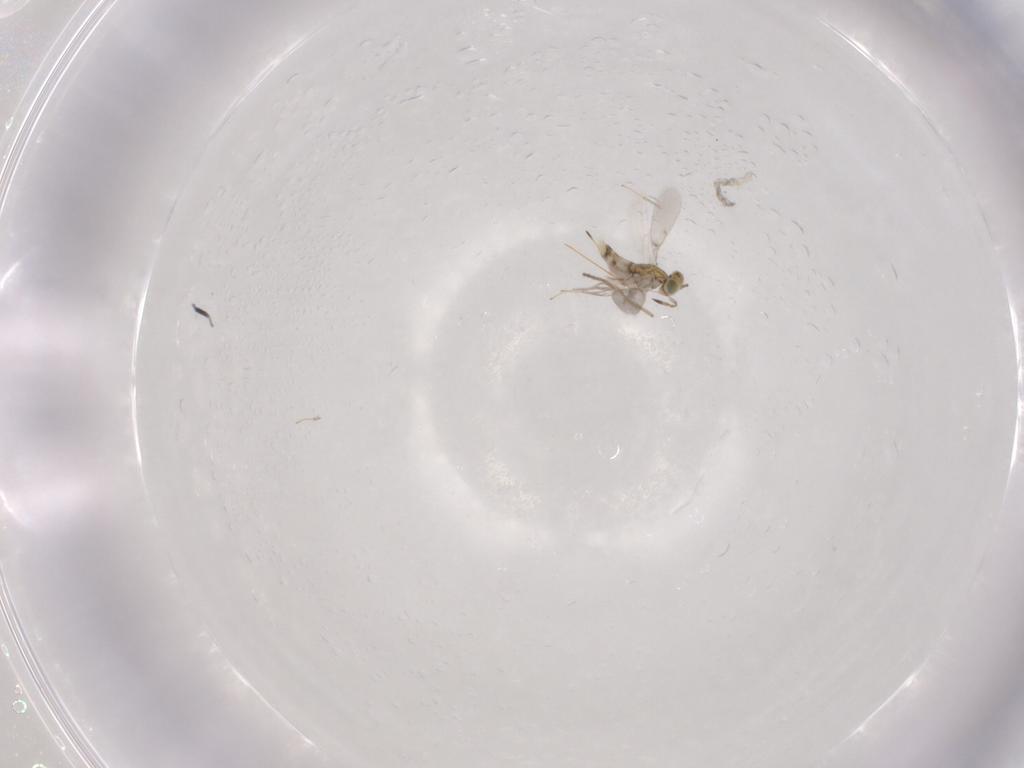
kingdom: Animalia
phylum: Arthropoda
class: Insecta
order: Hymenoptera
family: Aphelinidae
